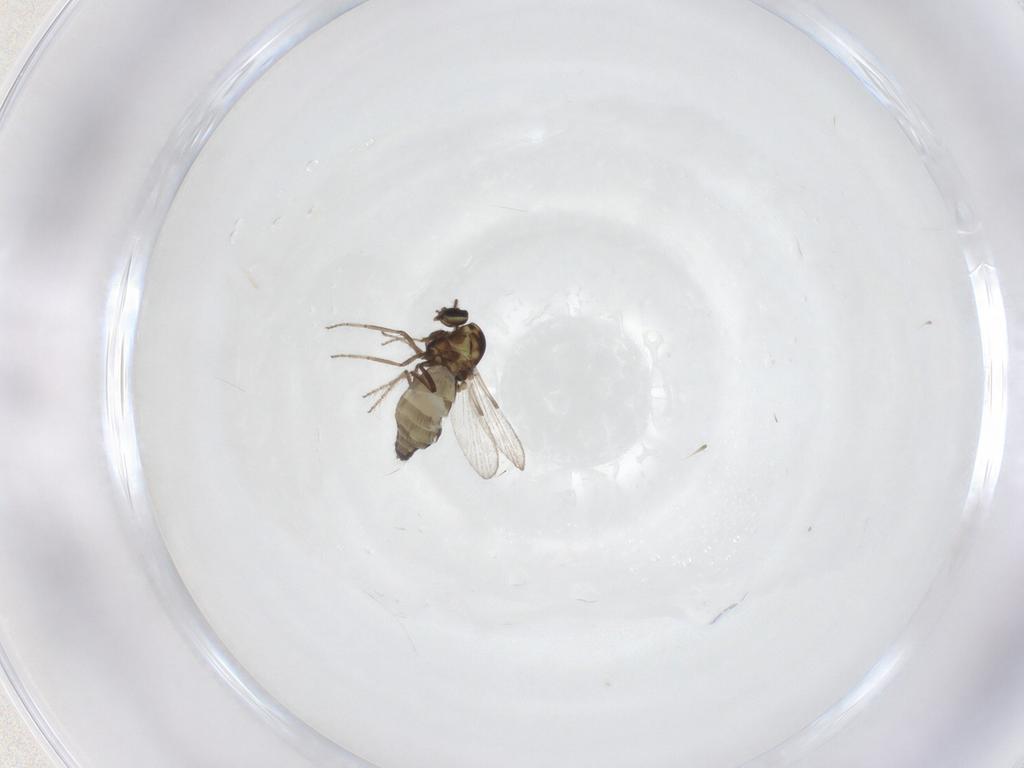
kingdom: Animalia
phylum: Arthropoda
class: Insecta
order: Diptera
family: Ceratopogonidae
